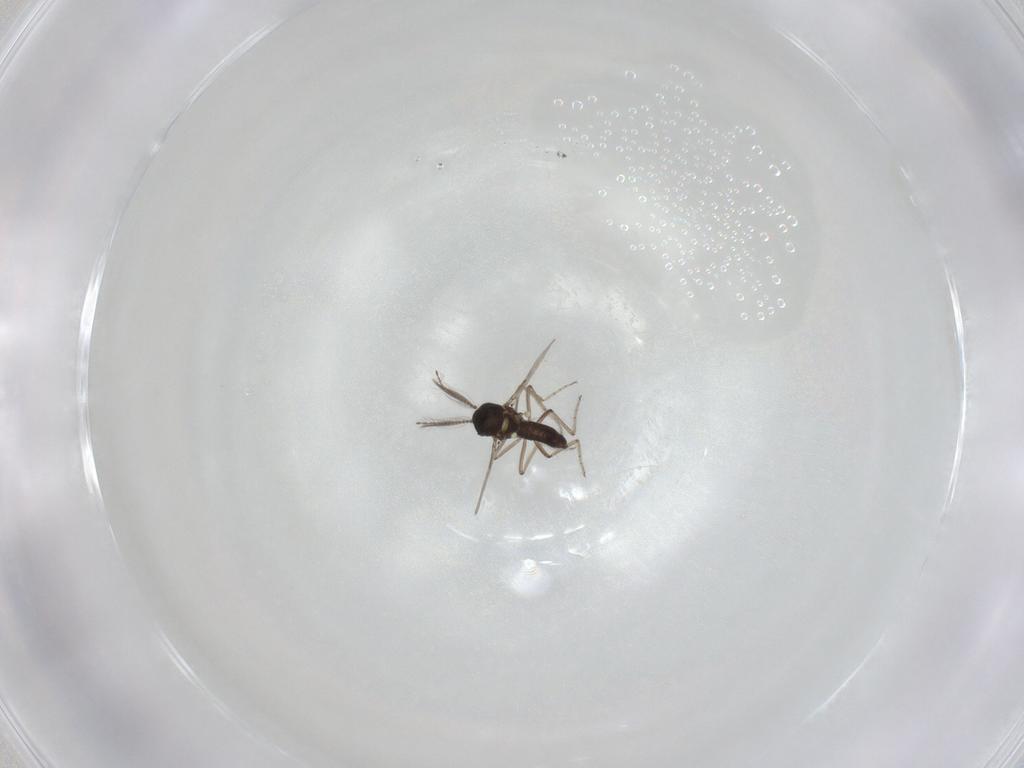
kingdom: Animalia
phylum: Arthropoda
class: Insecta
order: Diptera
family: Ceratopogonidae
